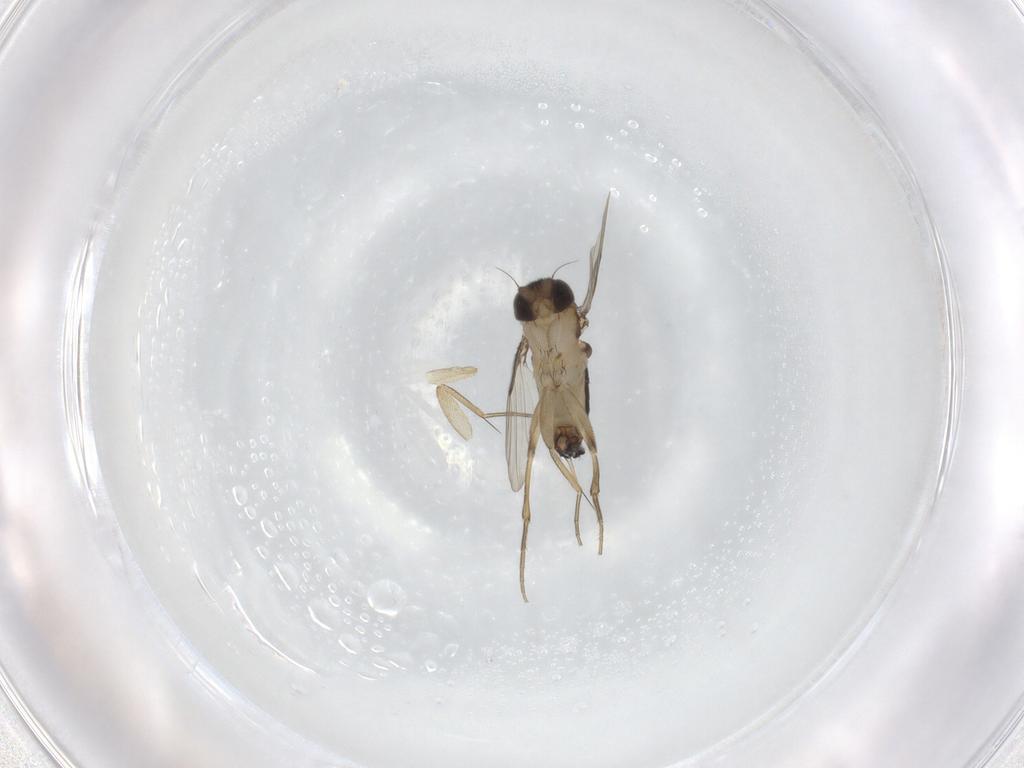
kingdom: Animalia
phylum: Arthropoda
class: Insecta
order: Diptera
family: Phoridae
